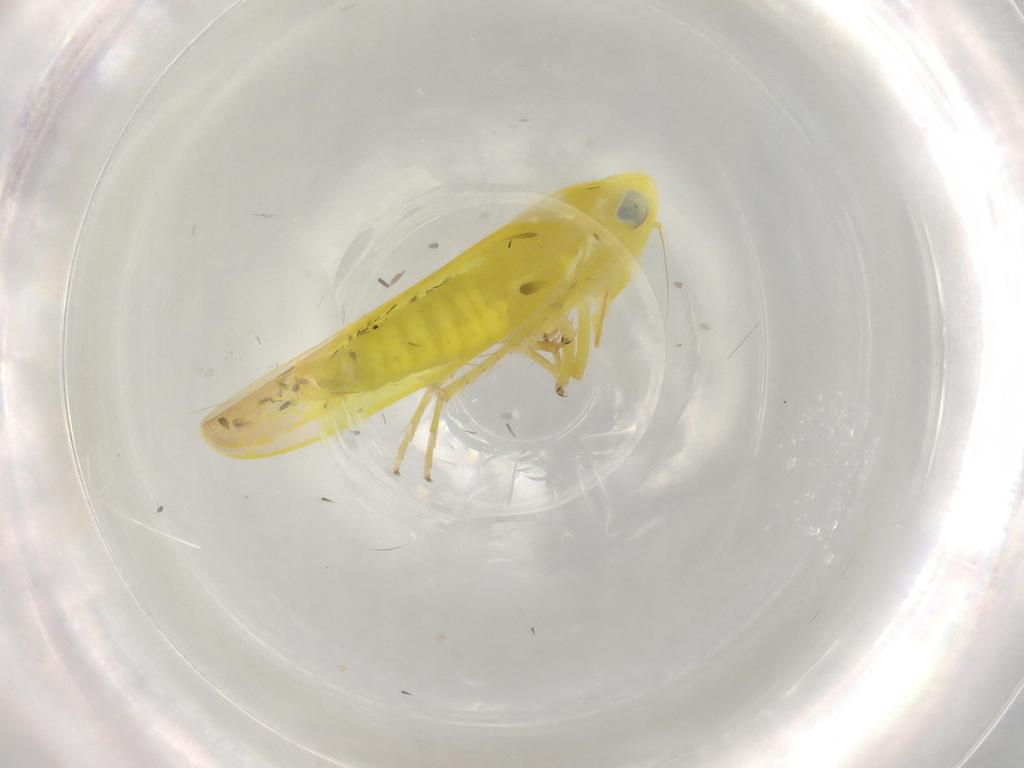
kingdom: Animalia
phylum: Arthropoda
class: Insecta
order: Hemiptera
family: Cicadellidae
